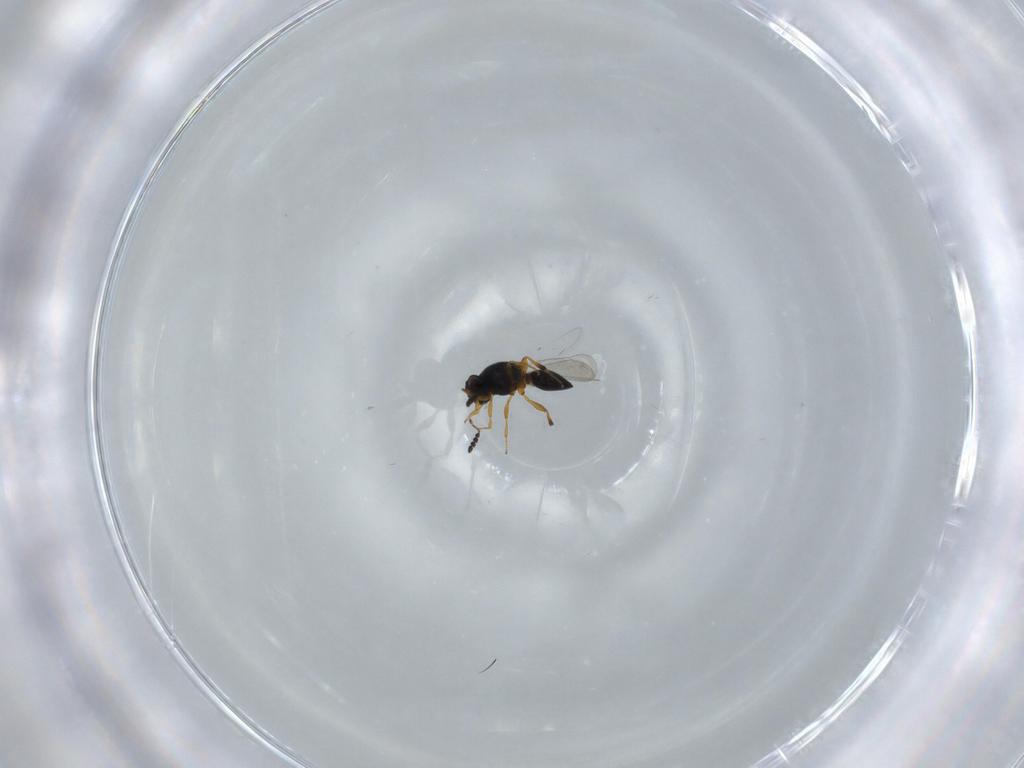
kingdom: Animalia
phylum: Arthropoda
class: Insecta
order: Hymenoptera
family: Platygastridae
